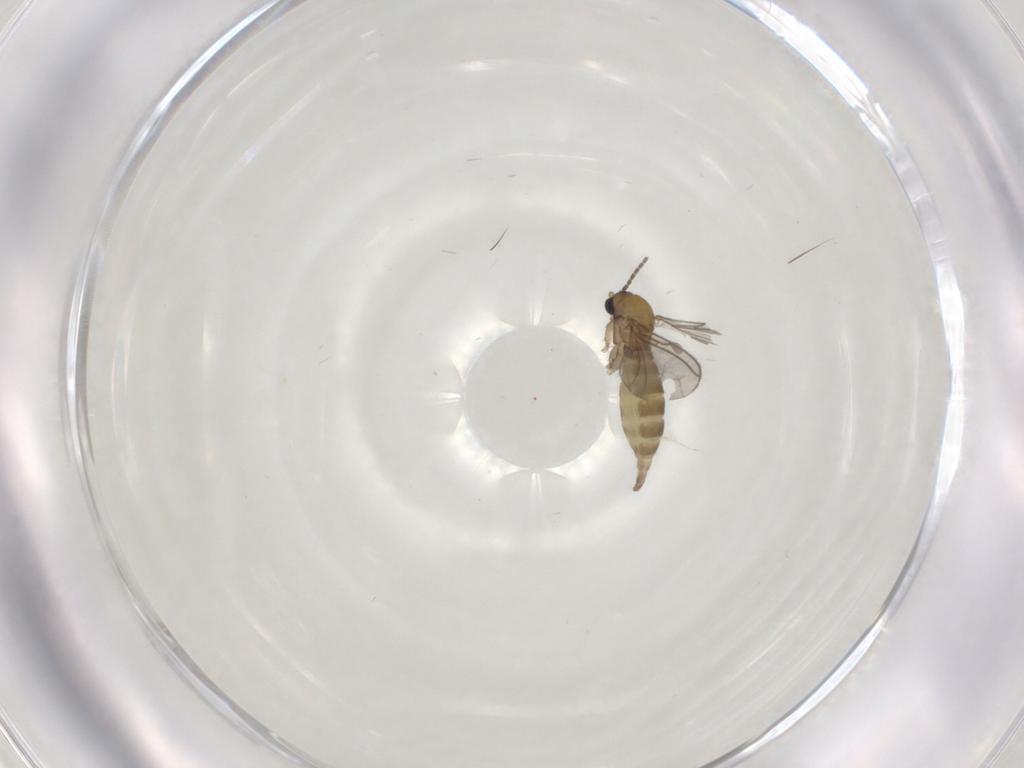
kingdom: Animalia
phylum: Arthropoda
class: Insecta
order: Diptera
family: Sciaridae
